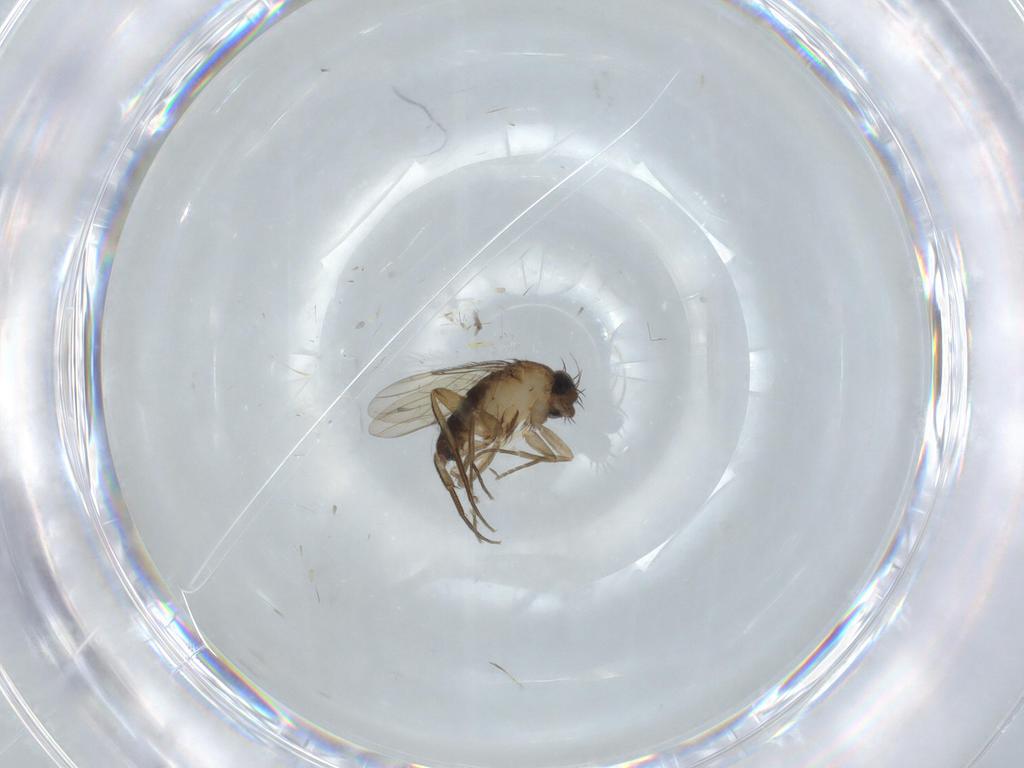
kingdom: Animalia
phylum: Arthropoda
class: Insecta
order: Diptera
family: Phoridae
